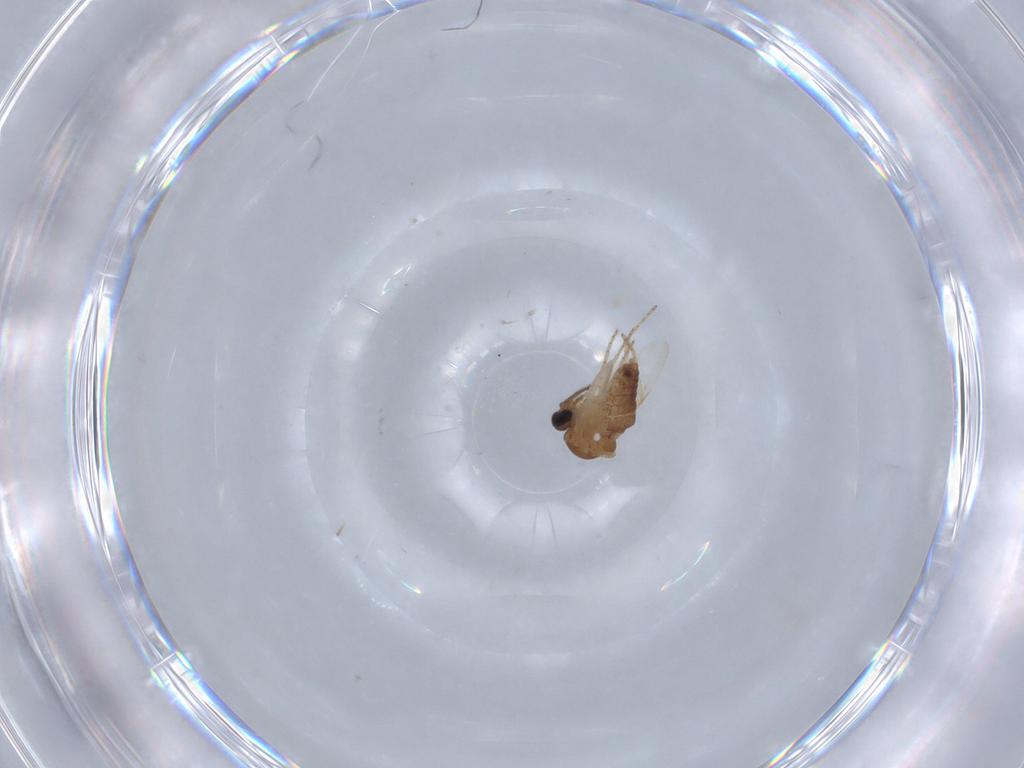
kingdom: Animalia
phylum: Arthropoda
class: Insecta
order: Diptera
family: Ceratopogonidae
